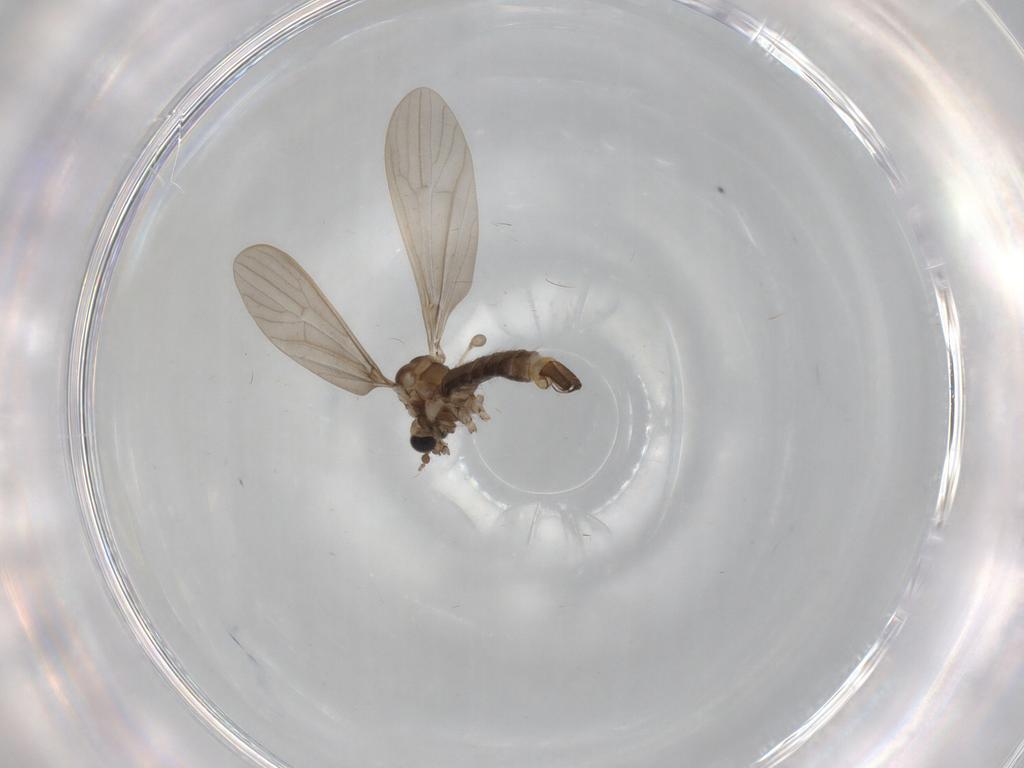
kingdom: Animalia
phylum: Arthropoda
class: Insecta
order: Diptera
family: Limoniidae
